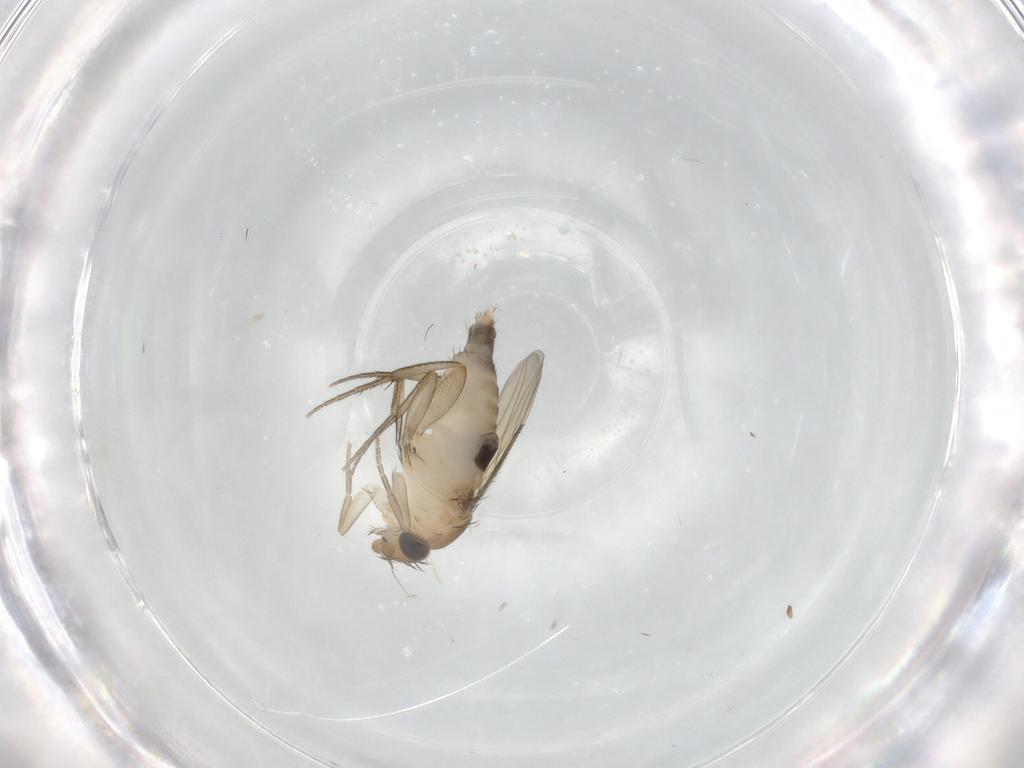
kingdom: Animalia
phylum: Arthropoda
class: Insecta
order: Diptera
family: Phoridae
